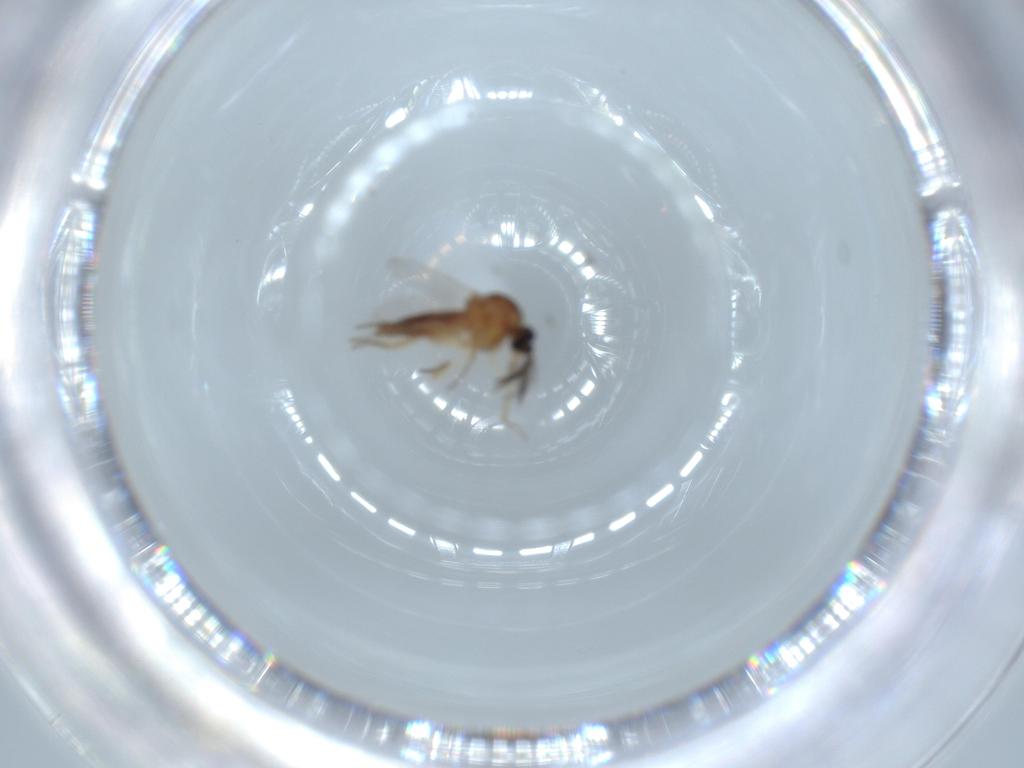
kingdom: Animalia
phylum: Arthropoda
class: Insecta
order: Diptera
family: Ceratopogonidae
